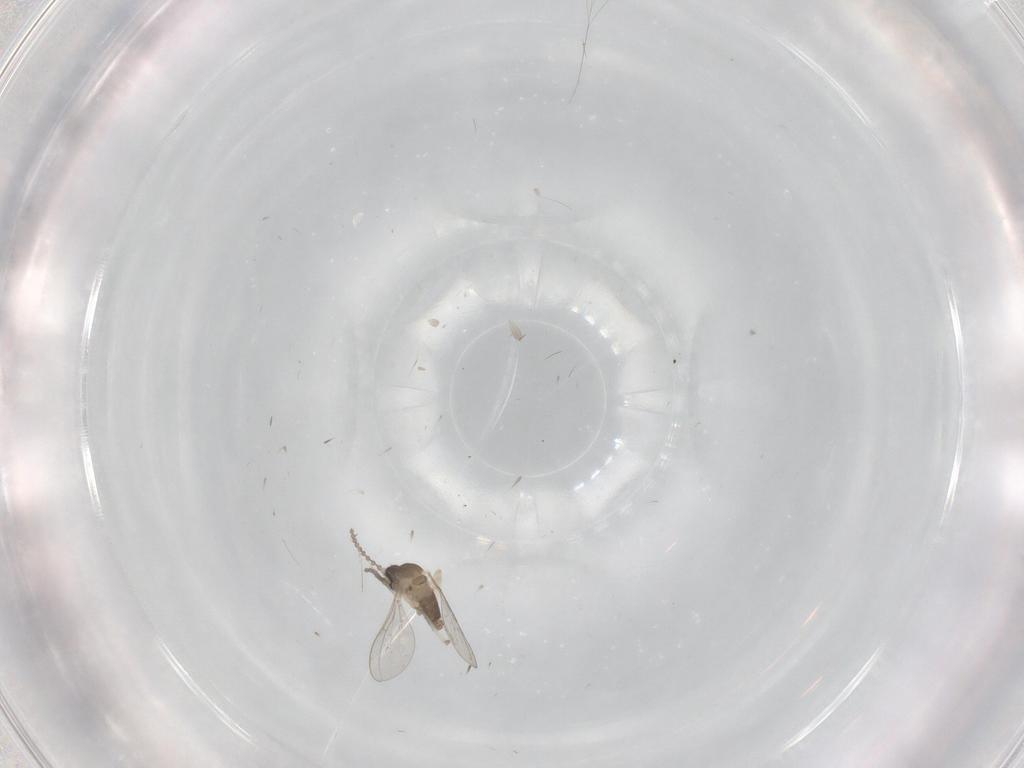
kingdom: Animalia
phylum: Arthropoda
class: Insecta
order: Diptera
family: Cecidomyiidae
